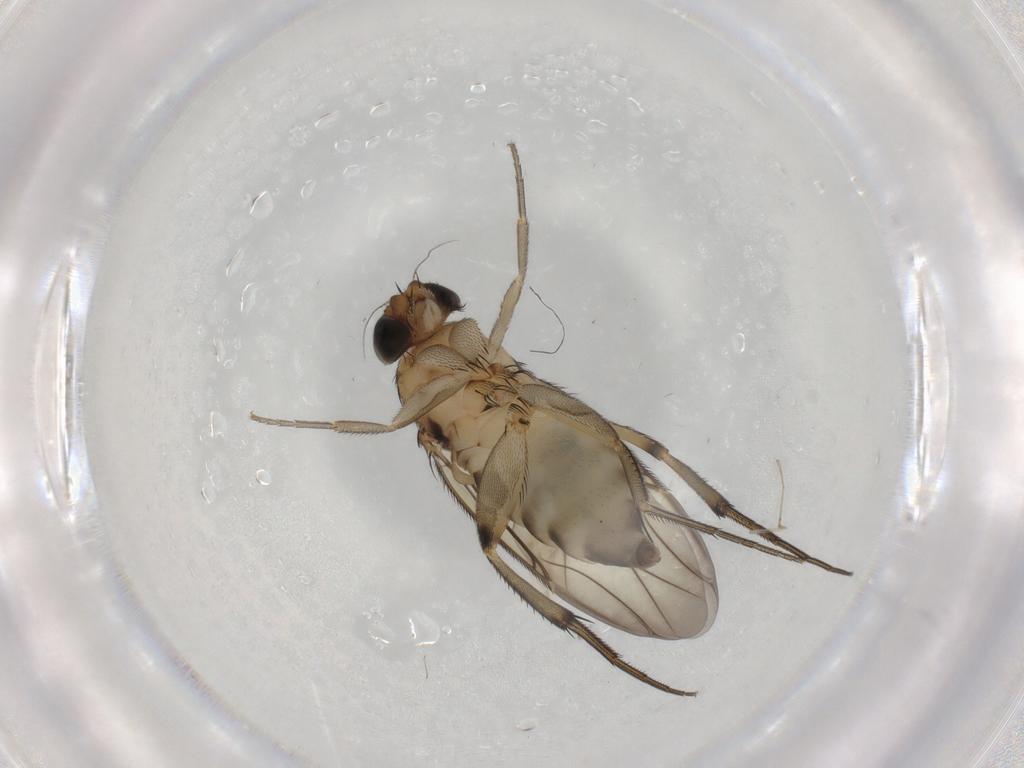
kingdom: Animalia
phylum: Arthropoda
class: Insecta
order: Diptera
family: Phoridae
